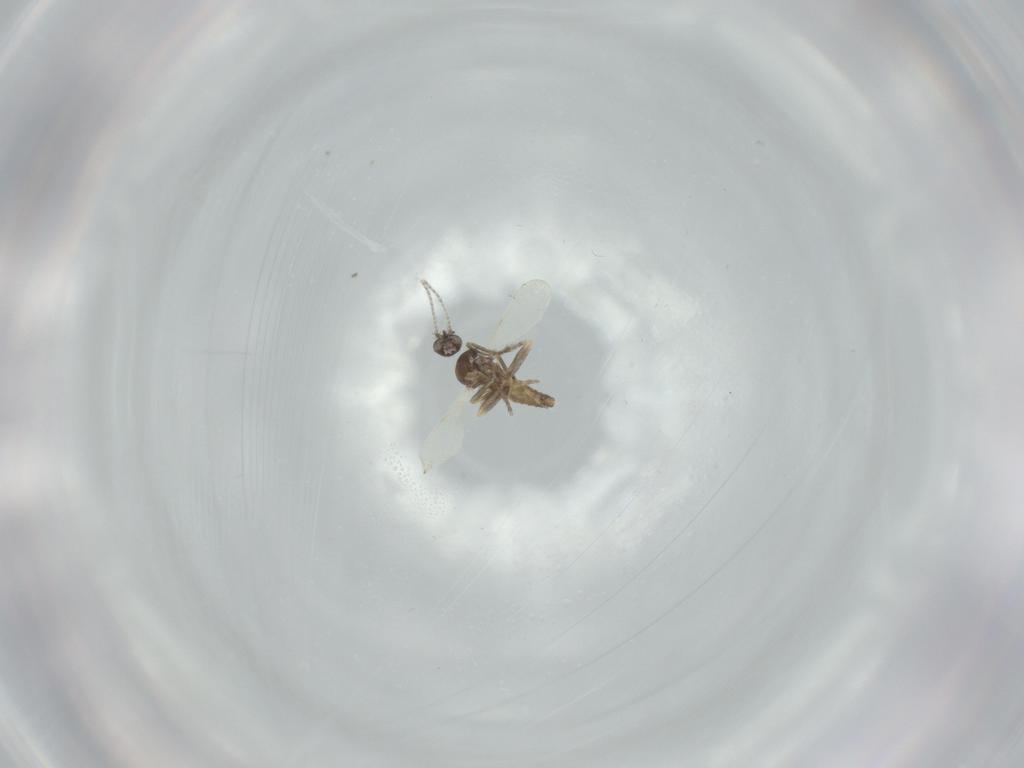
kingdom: Animalia
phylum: Arthropoda
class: Insecta
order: Diptera
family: Ceratopogonidae
